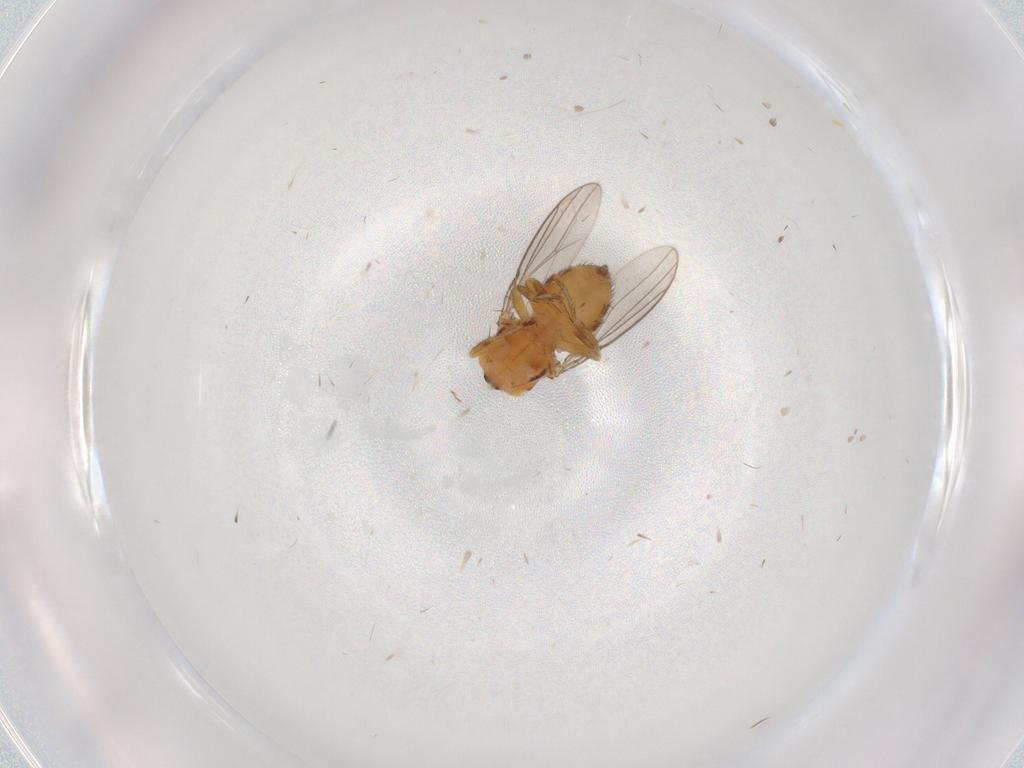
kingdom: Animalia
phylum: Arthropoda
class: Insecta
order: Diptera
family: Chloropidae
